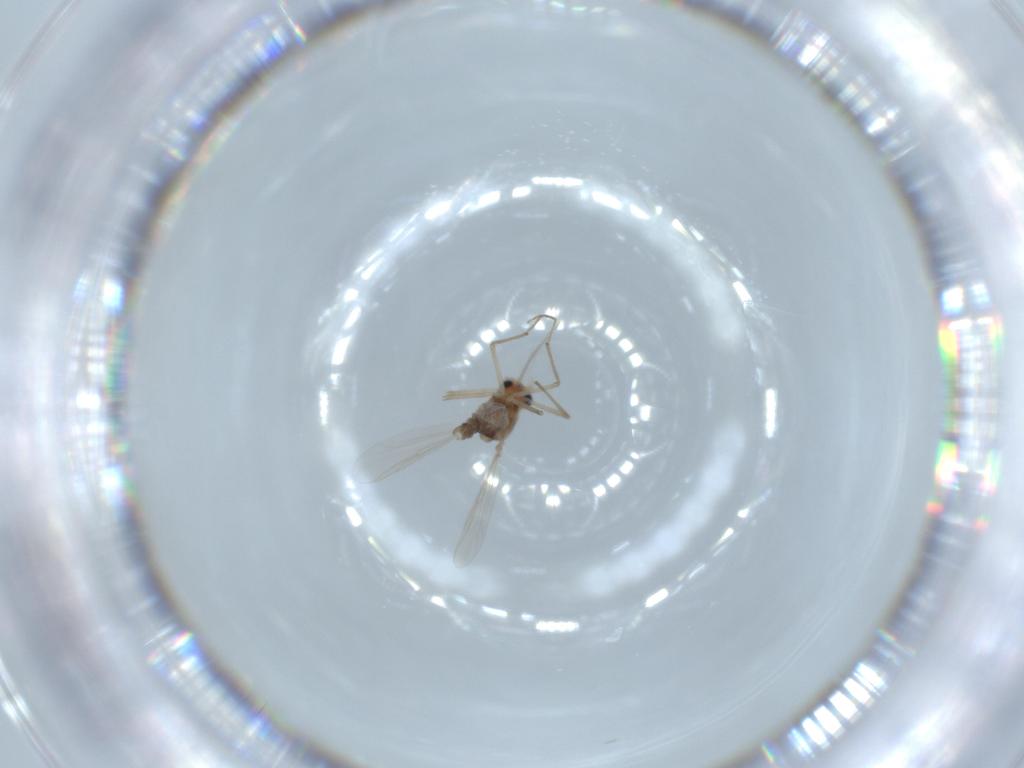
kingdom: Animalia
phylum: Arthropoda
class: Insecta
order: Diptera
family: Chironomidae
